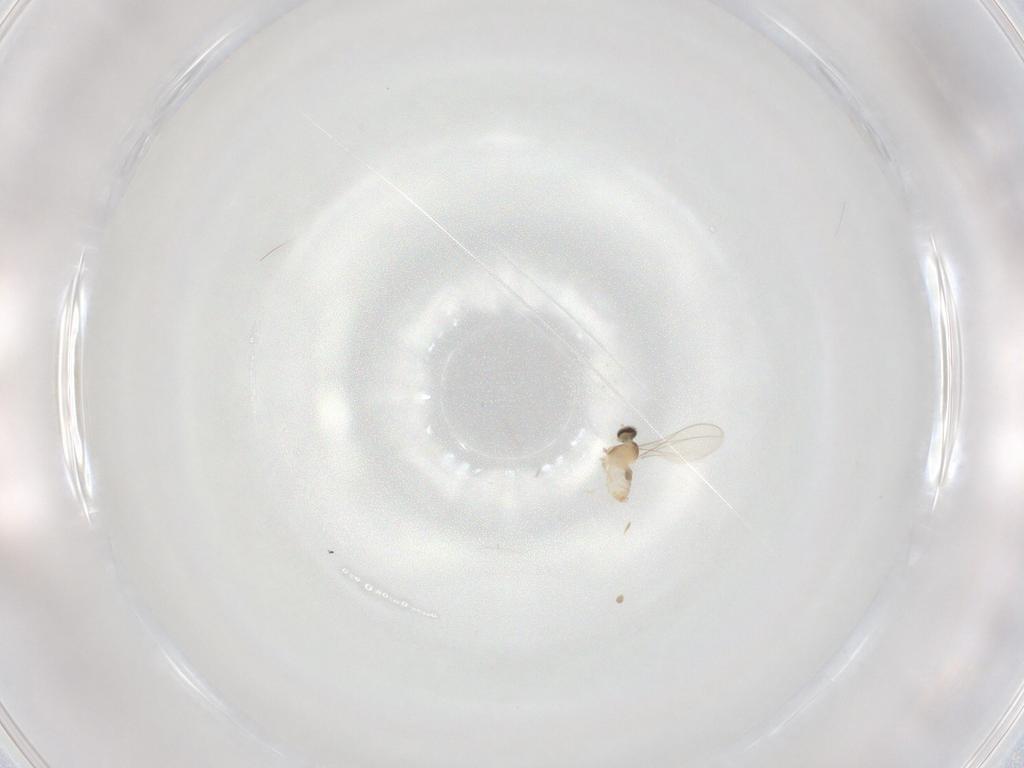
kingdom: Animalia
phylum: Arthropoda
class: Insecta
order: Diptera
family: Cecidomyiidae
